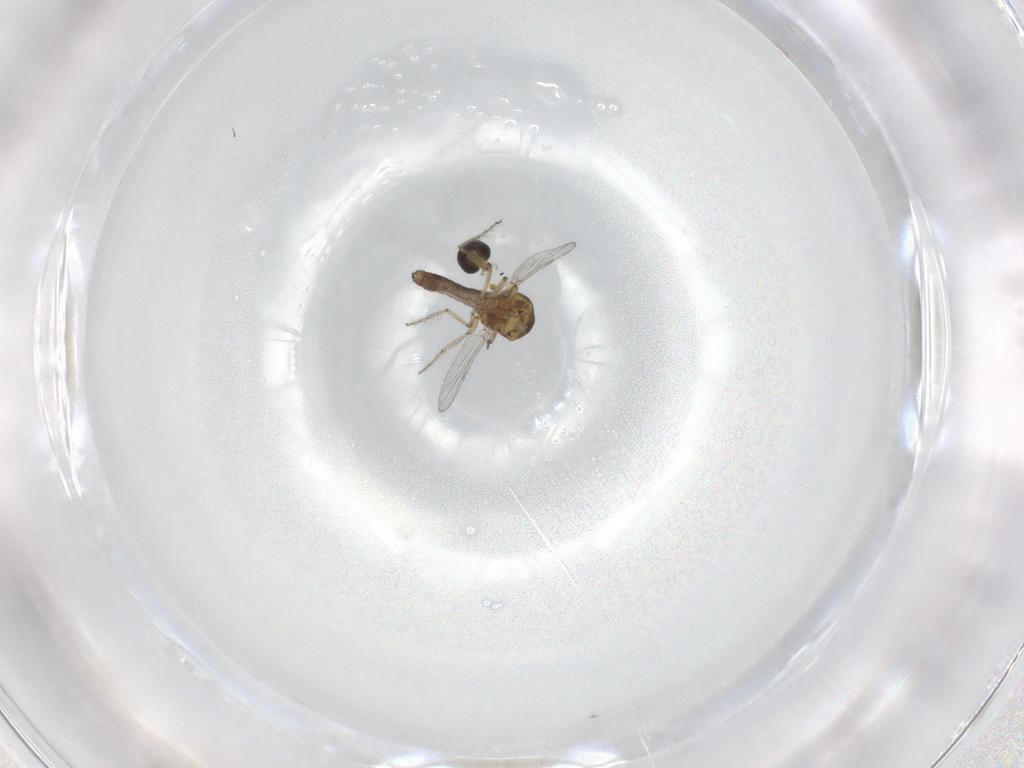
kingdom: Animalia
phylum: Arthropoda
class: Insecta
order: Diptera
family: Ceratopogonidae
